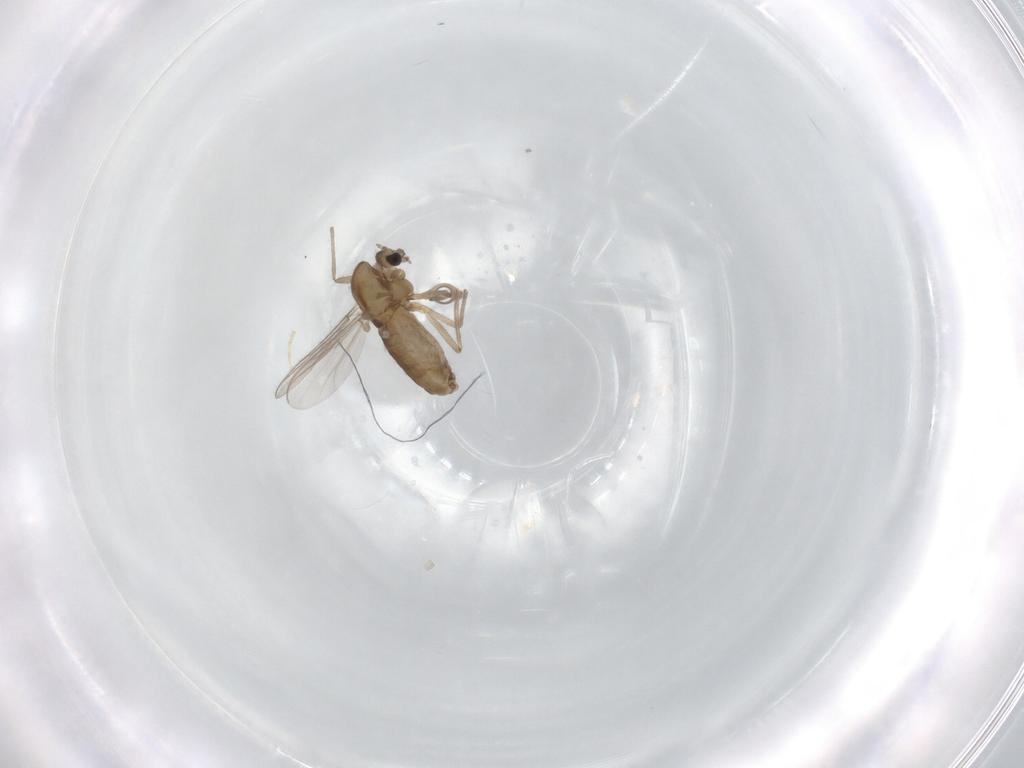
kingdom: Animalia
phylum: Arthropoda
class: Insecta
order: Diptera
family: Chironomidae
